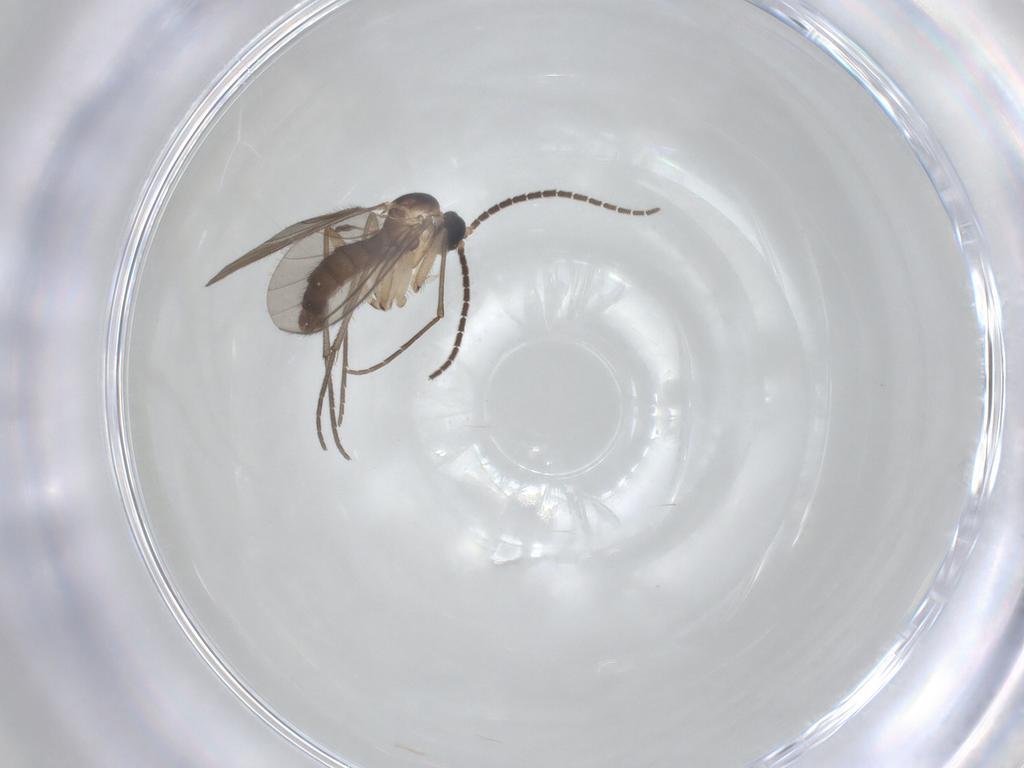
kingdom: Animalia
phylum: Arthropoda
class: Insecta
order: Diptera
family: Sciaridae
